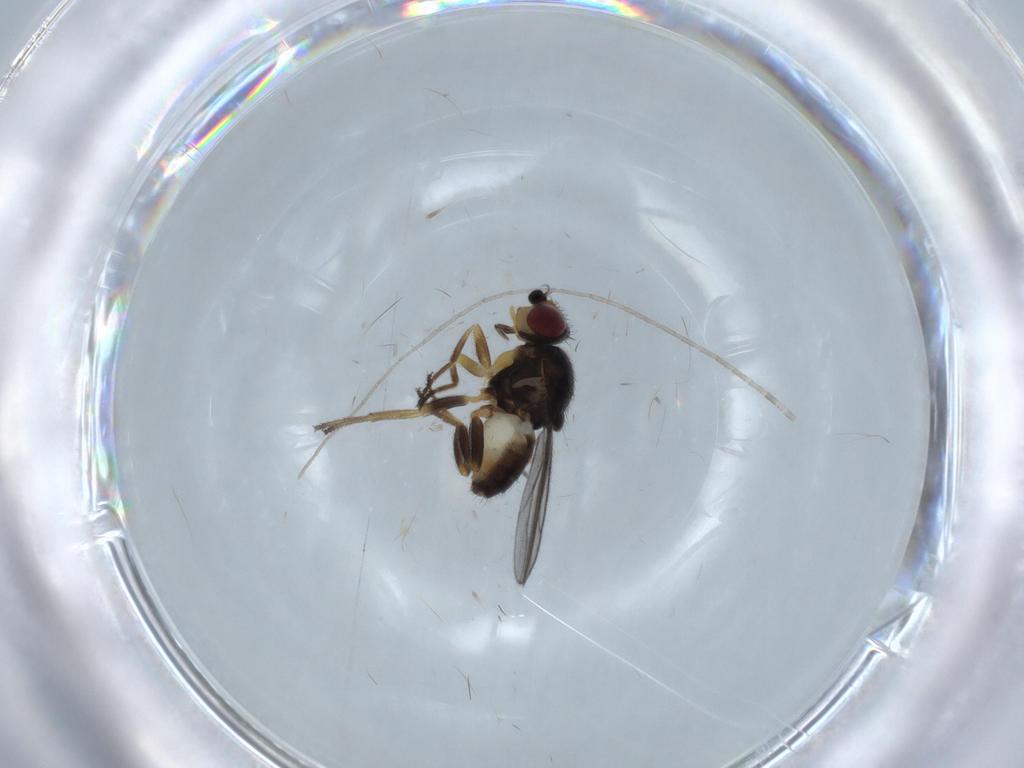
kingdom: Animalia
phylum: Arthropoda
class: Insecta
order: Diptera
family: Chloropidae
